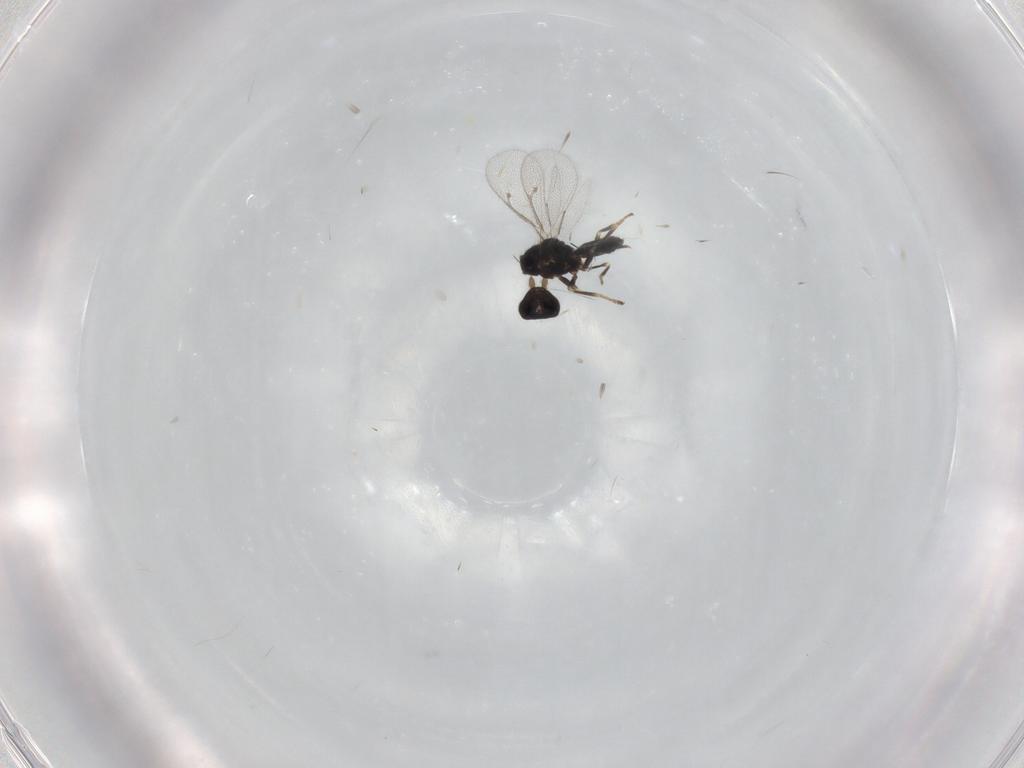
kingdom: Animalia
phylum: Arthropoda
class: Insecta
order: Hymenoptera
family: Eulophidae
